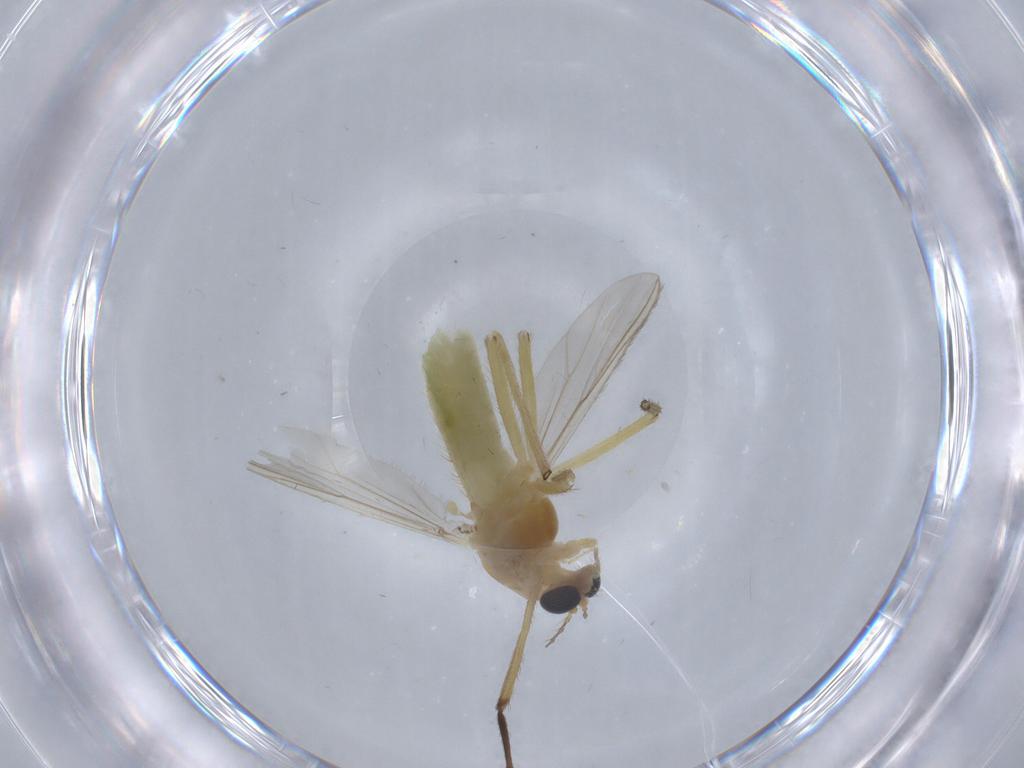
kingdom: Animalia
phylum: Arthropoda
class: Insecta
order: Diptera
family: Chironomidae
